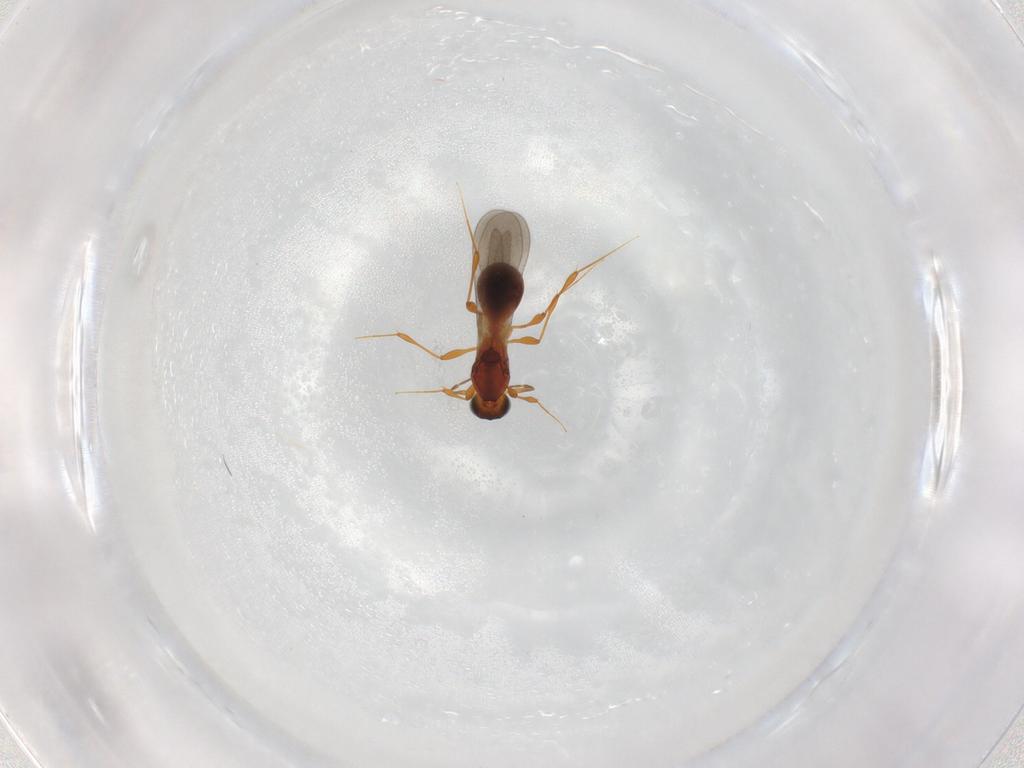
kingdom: Animalia
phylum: Arthropoda
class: Insecta
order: Hymenoptera
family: Platygastridae
